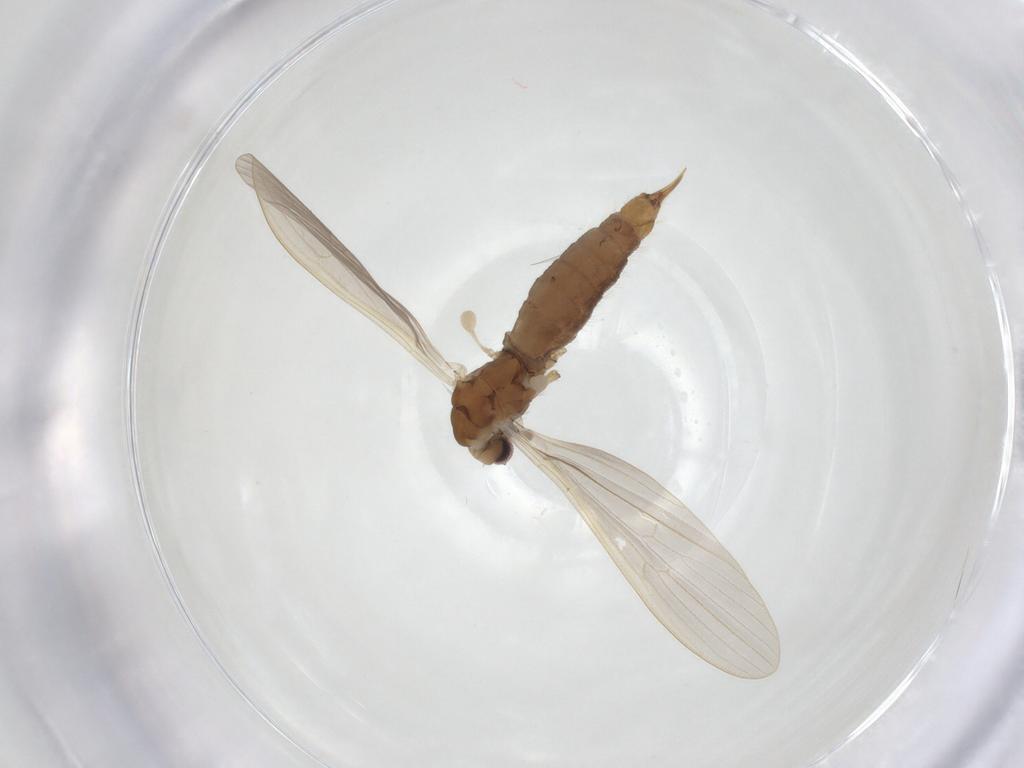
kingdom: Animalia
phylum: Arthropoda
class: Insecta
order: Diptera
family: Limoniidae
